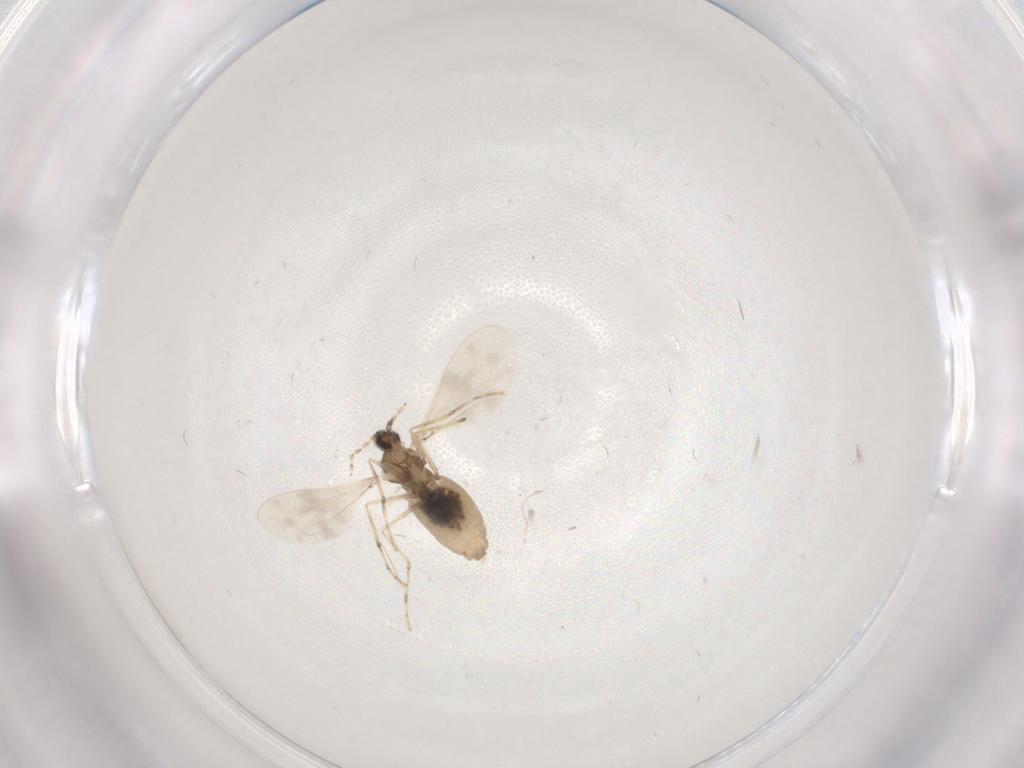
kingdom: Animalia
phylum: Arthropoda
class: Insecta
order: Diptera
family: Cecidomyiidae
